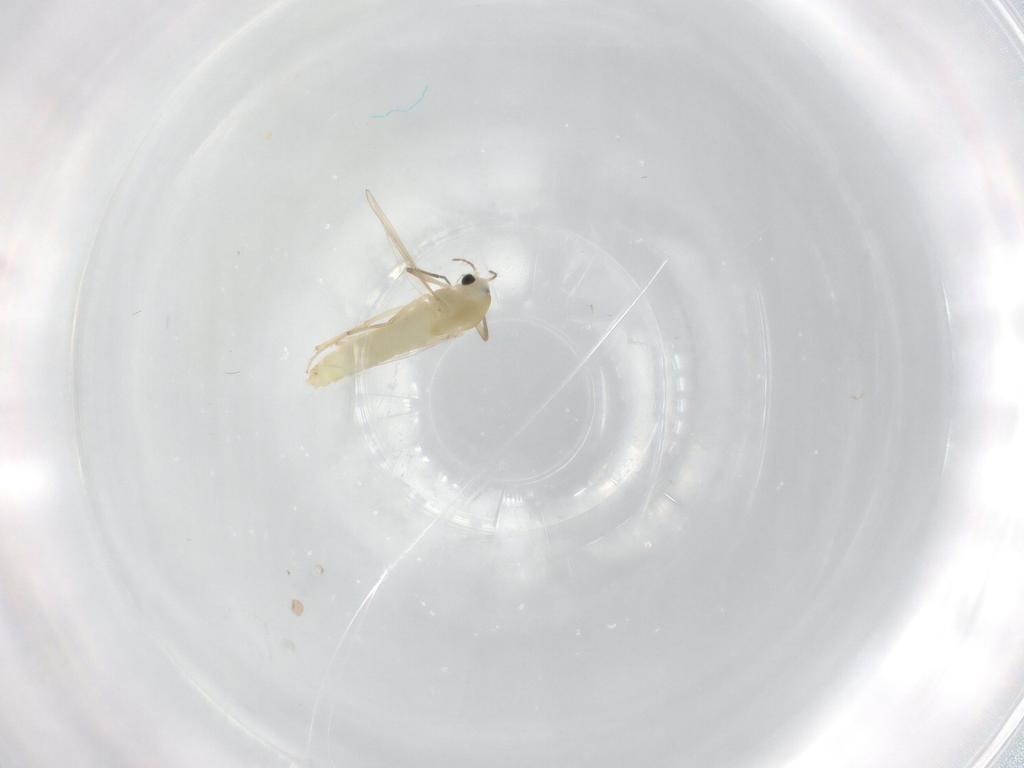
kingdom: Animalia
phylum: Arthropoda
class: Insecta
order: Diptera
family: Chironomidae
